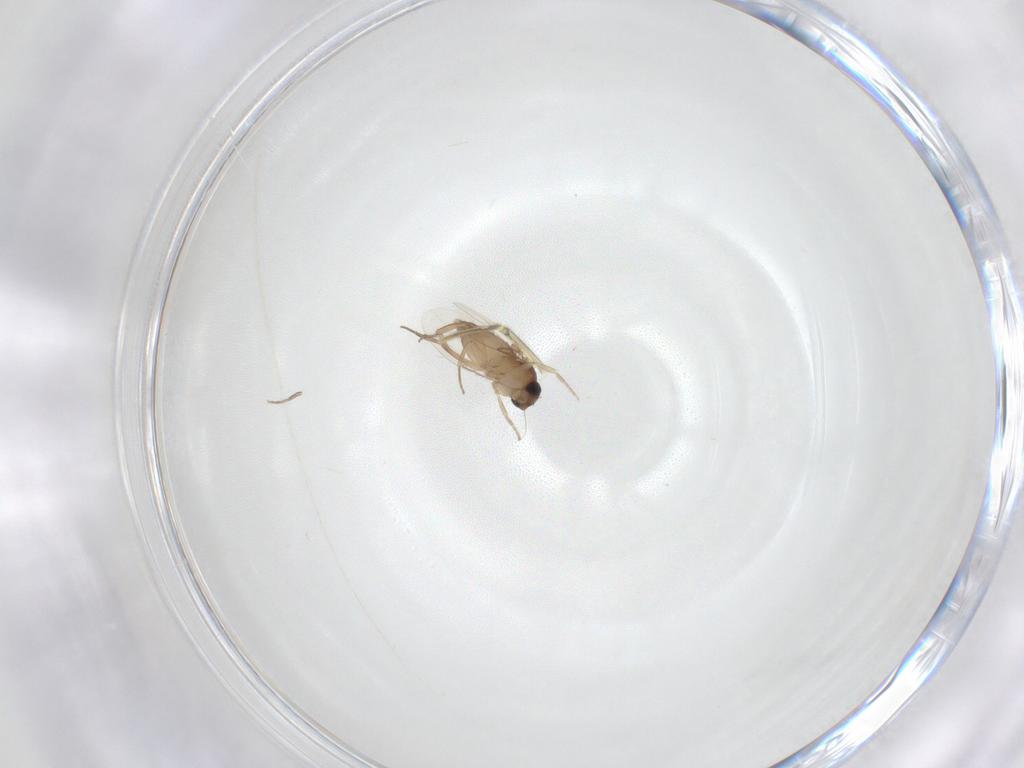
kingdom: Animalia
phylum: Arthropoda
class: Insecta
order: Diptera
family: Phoridae
